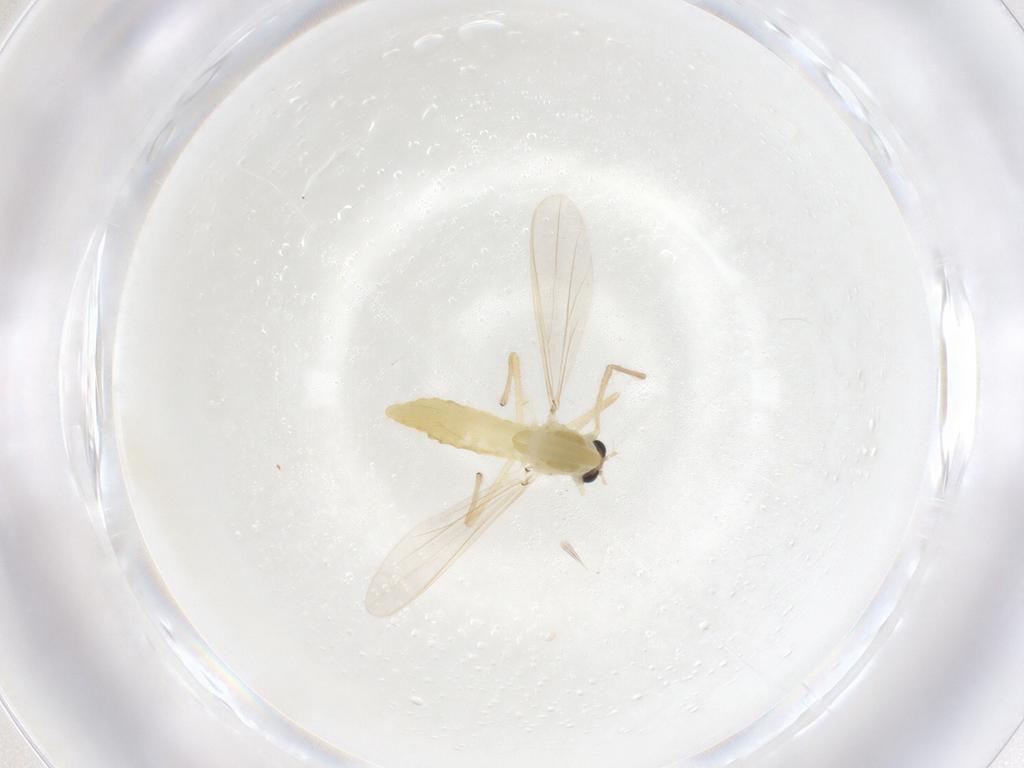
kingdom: Animalia
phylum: Arthropoda
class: Insecta
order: Diptera
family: Chironomidae
